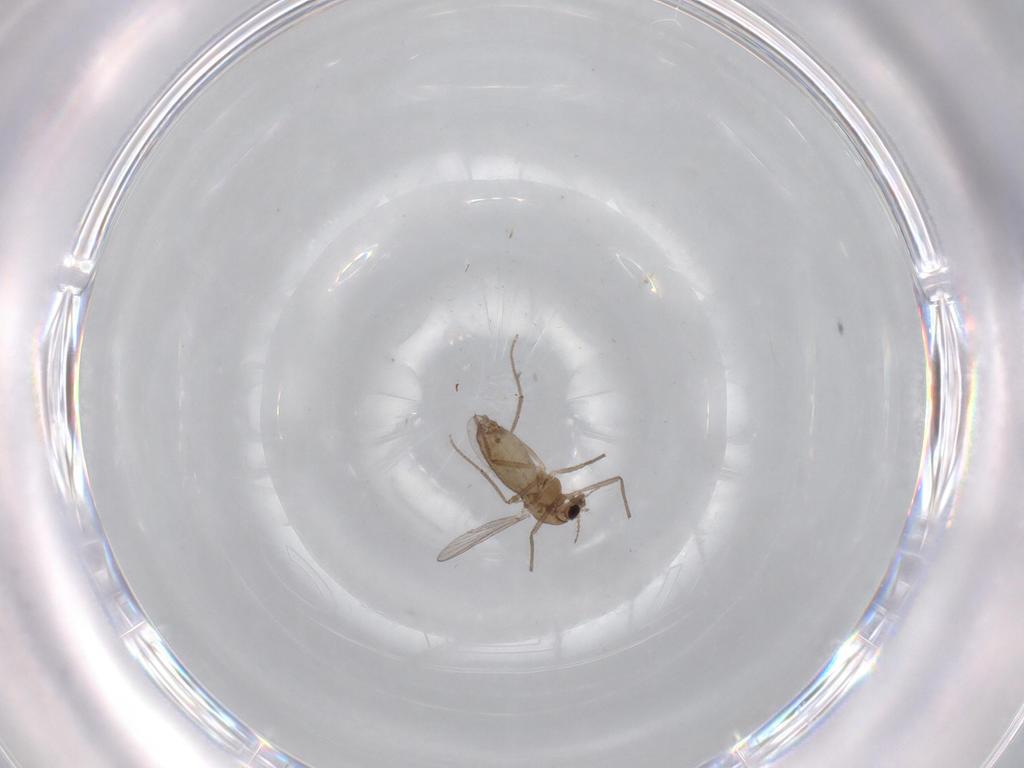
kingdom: Animalia
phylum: Arthropoda
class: Insecta
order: Diptera
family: Chironomidae
